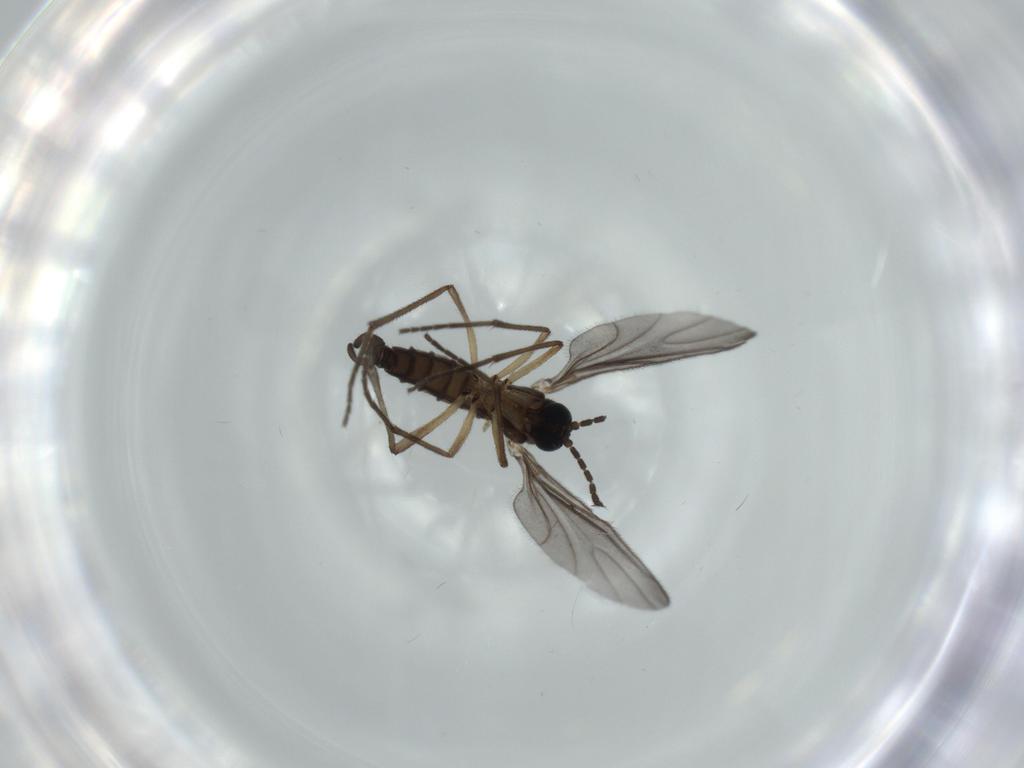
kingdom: Animalia
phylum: Arthropoda
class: Insecta
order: Diptera
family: Sciaridae
